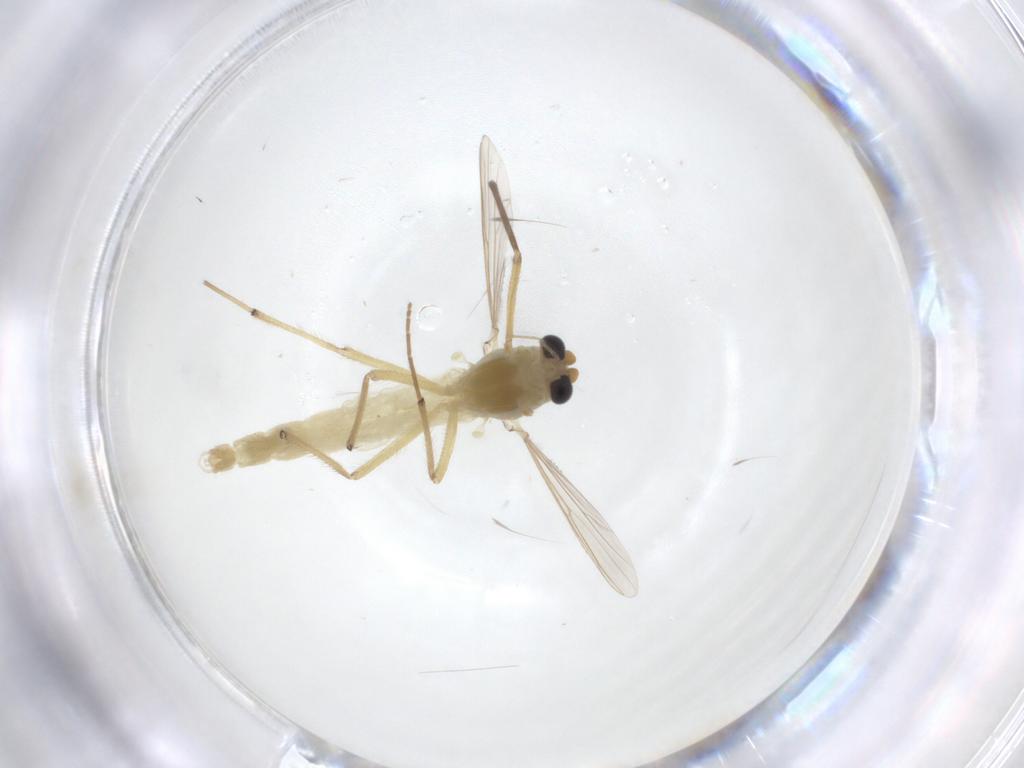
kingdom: Animalia
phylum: Arthropoda
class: Insecta
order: Diptera
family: Chironomidae
